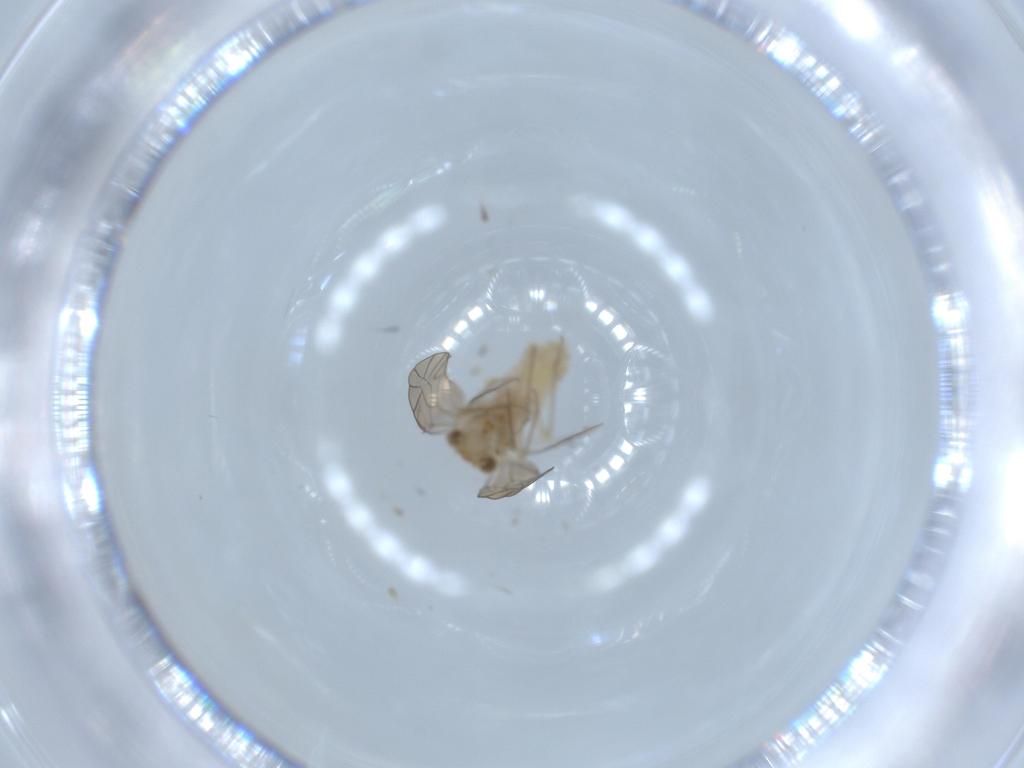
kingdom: Animalia
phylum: Arthropoda
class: Insecta
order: Psocodea
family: Lachesillidae
